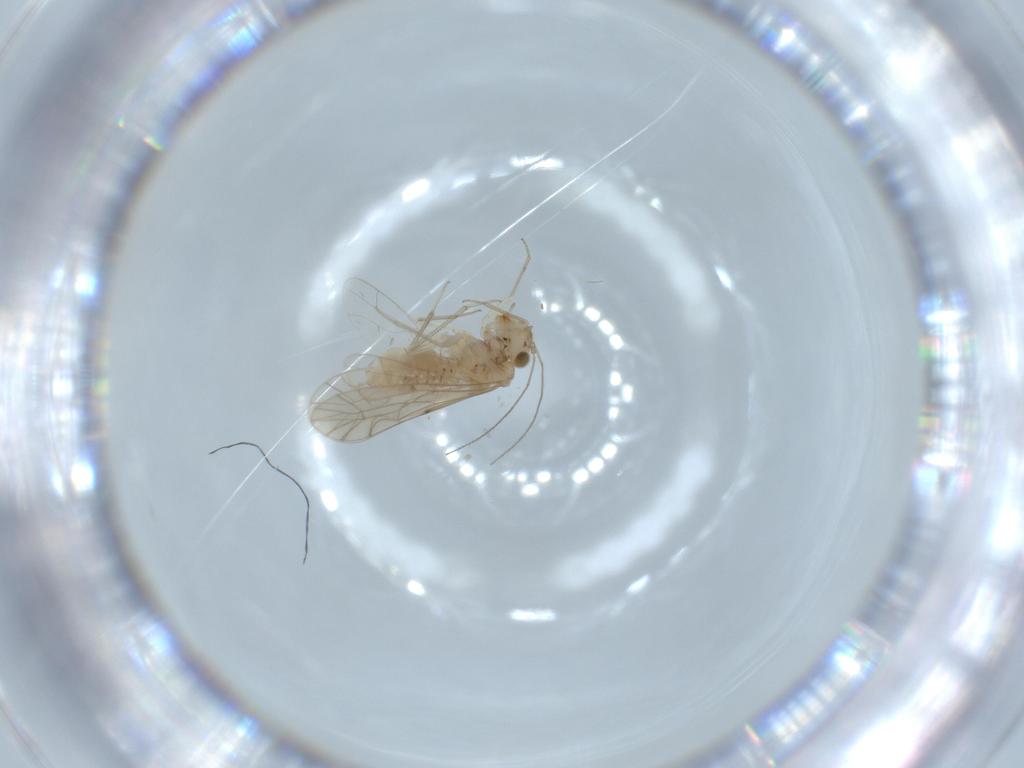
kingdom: Animalia
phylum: Arthropoda
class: Insecta
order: Psocodea
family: Lachesillidae
